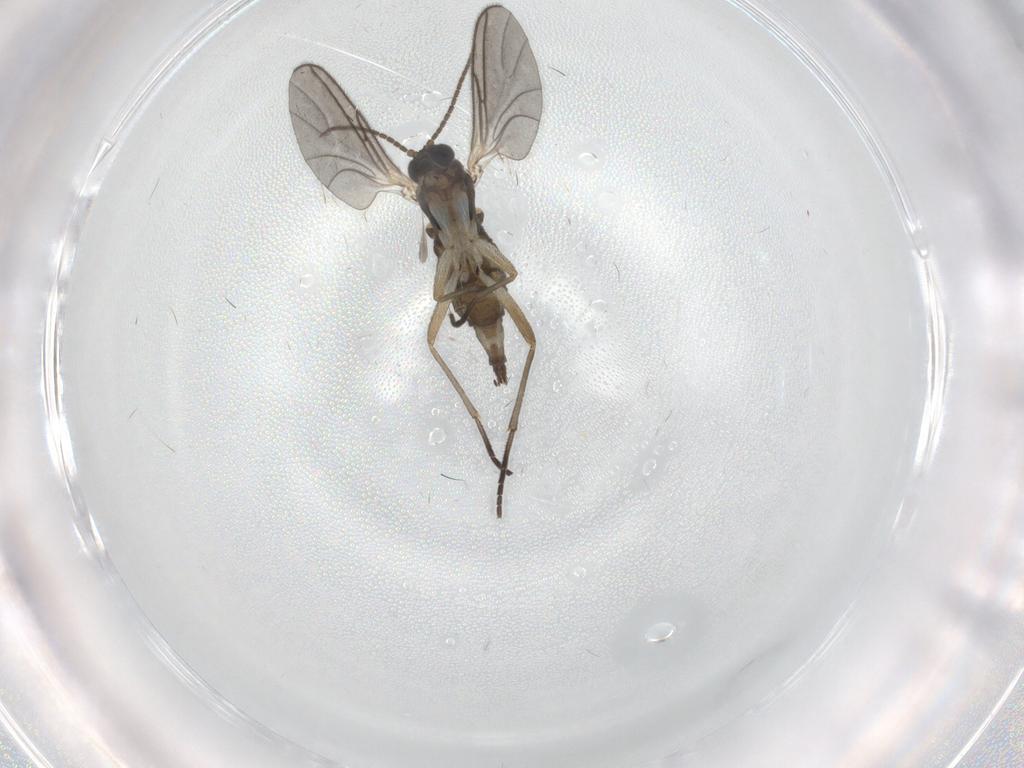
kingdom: Animalia
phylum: Arthropoda
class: Insecta
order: Diptera
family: Sciaridae
